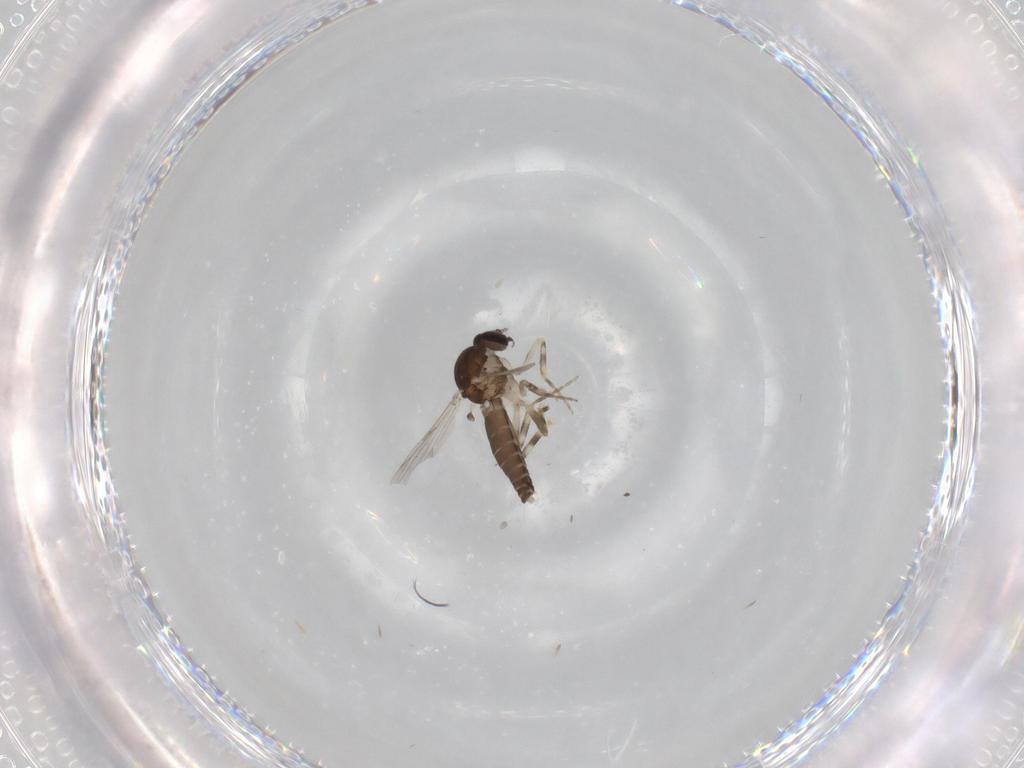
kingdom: Animalia
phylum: Arthropoda
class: Insecta
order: Diptera
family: Ceratopogonidae
